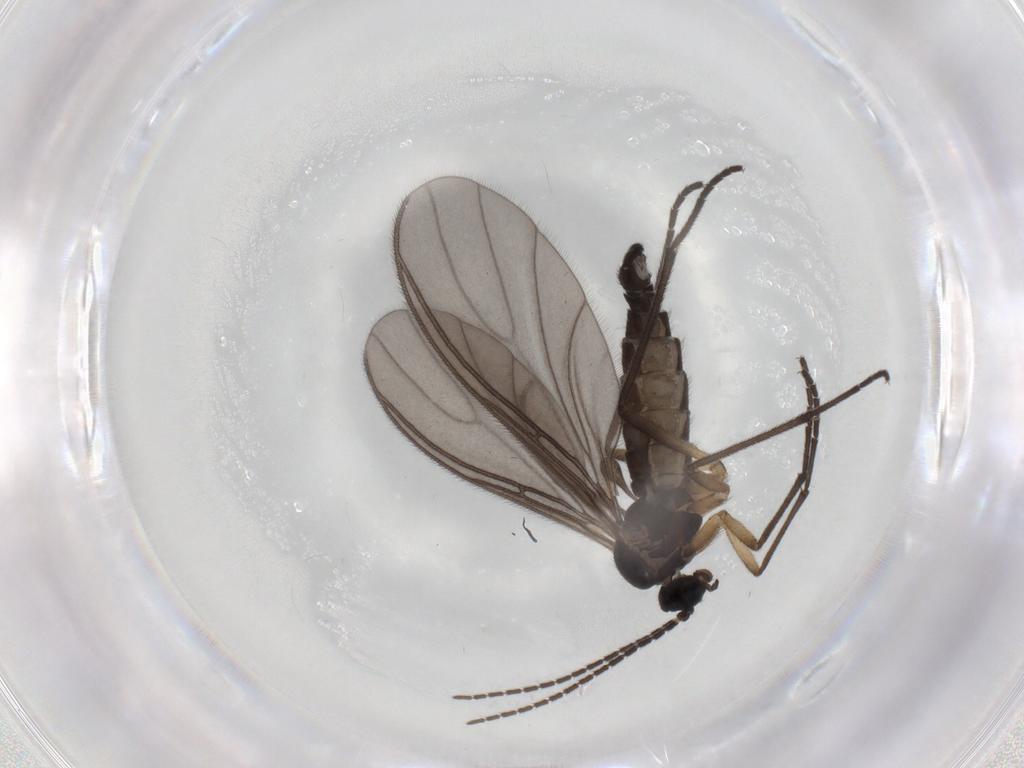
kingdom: Animalia
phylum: Arthropoda
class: Insecta
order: Diptera
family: Sciaridae
